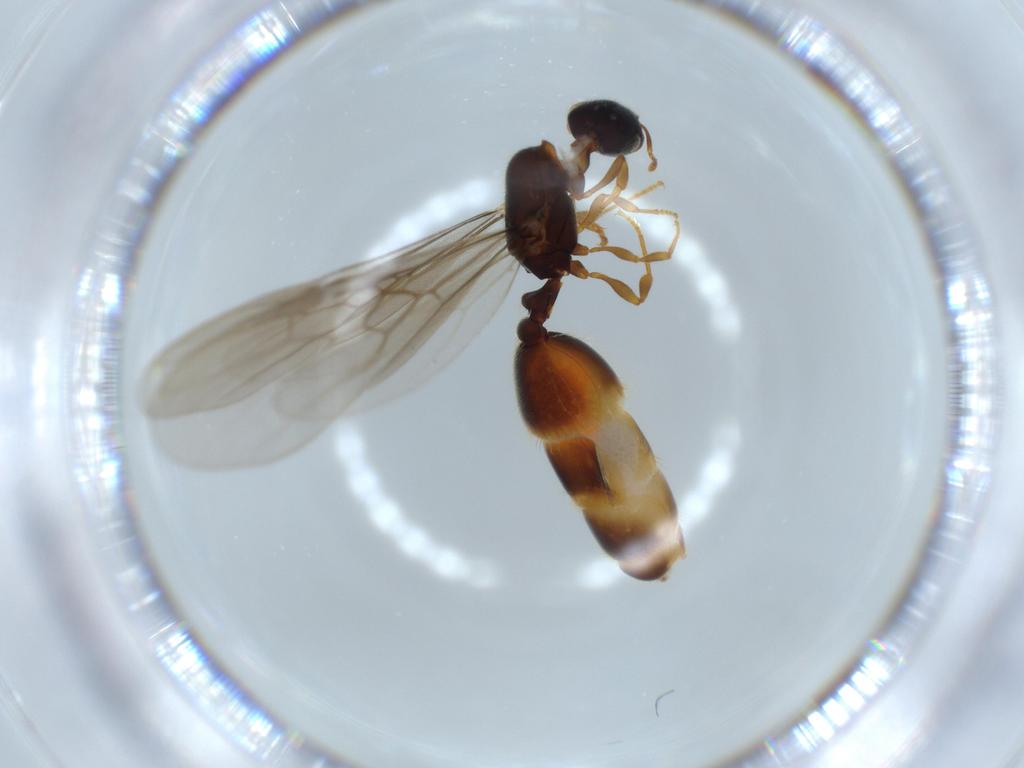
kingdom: Animalia
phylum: Arthropoda
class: Insecta
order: Hymenoptera
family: Formicidae
